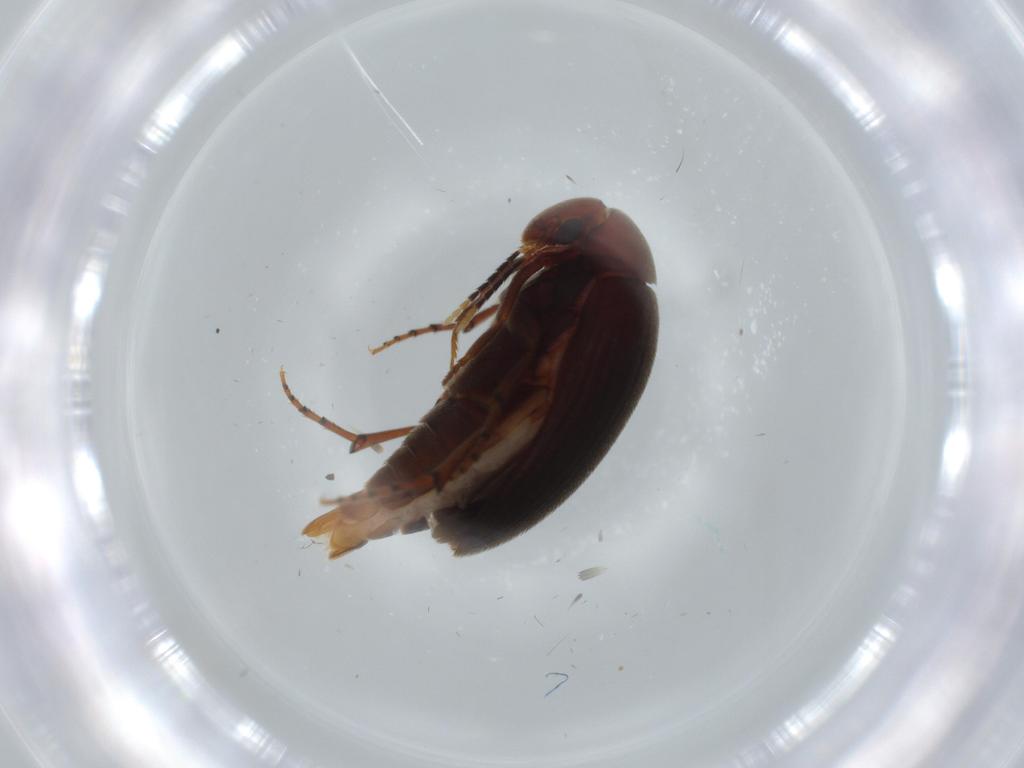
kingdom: Animalia
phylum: Arthropoda
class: Insecta
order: Coleoptera
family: Eucinetidae
